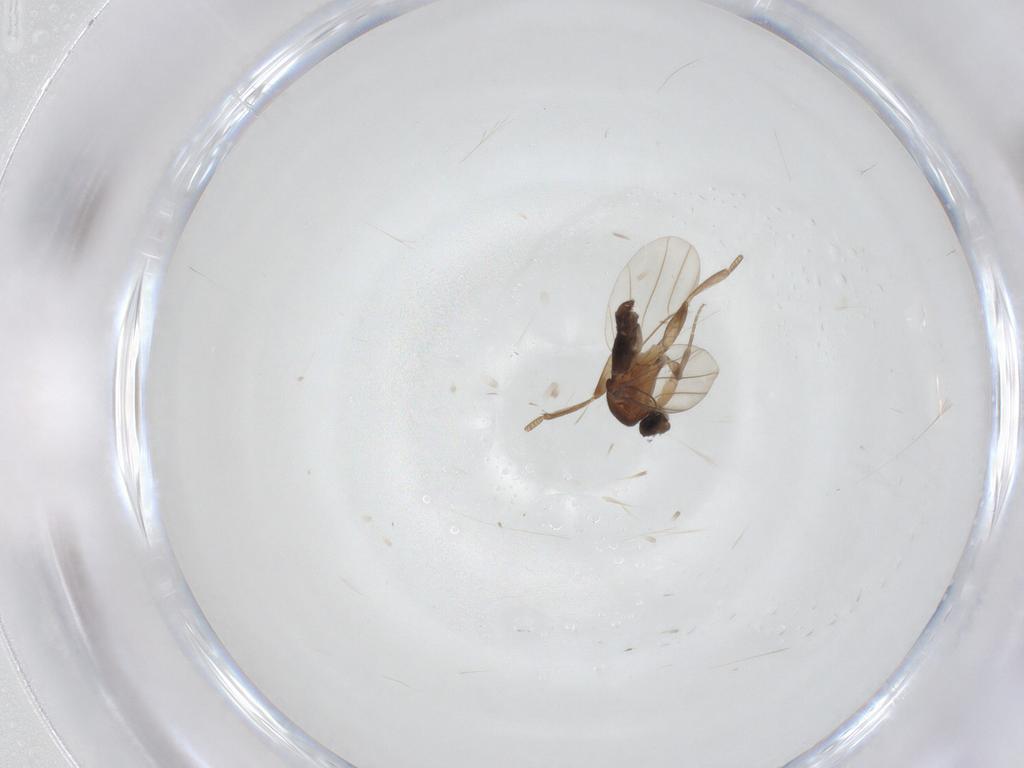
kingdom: Animalia
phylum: Arthropoda
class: Insecta
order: Diptera
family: Phoridae
